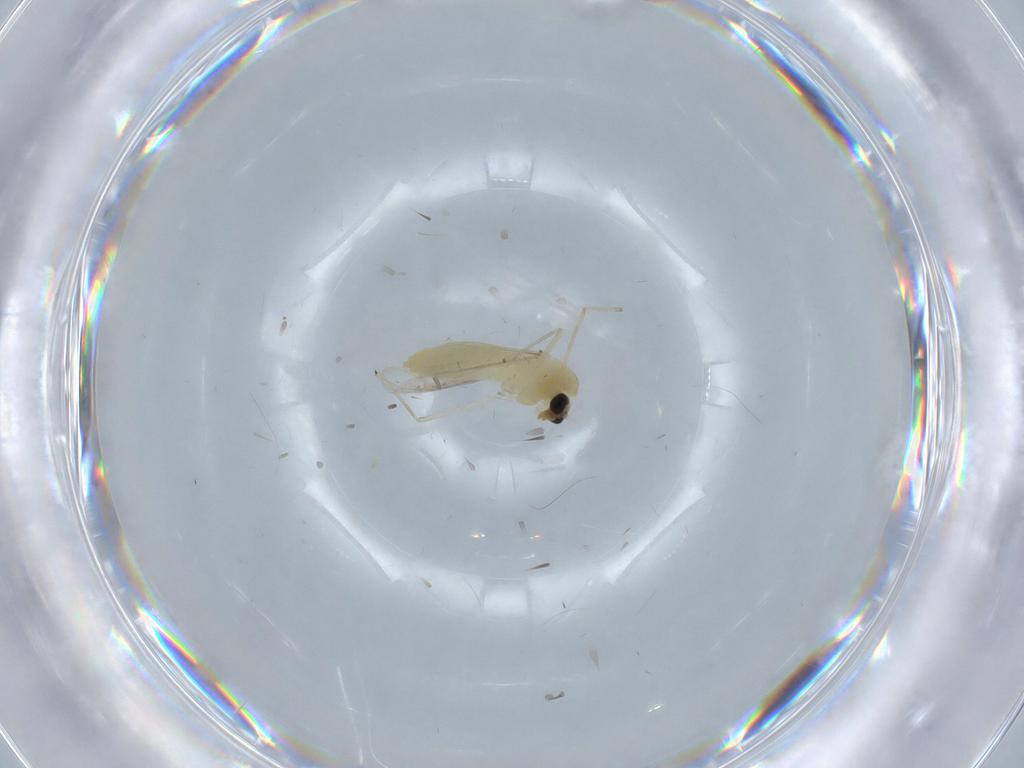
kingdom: Animalia
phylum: Arthropoda
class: Insecta
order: Diptera
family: Chironomidae
